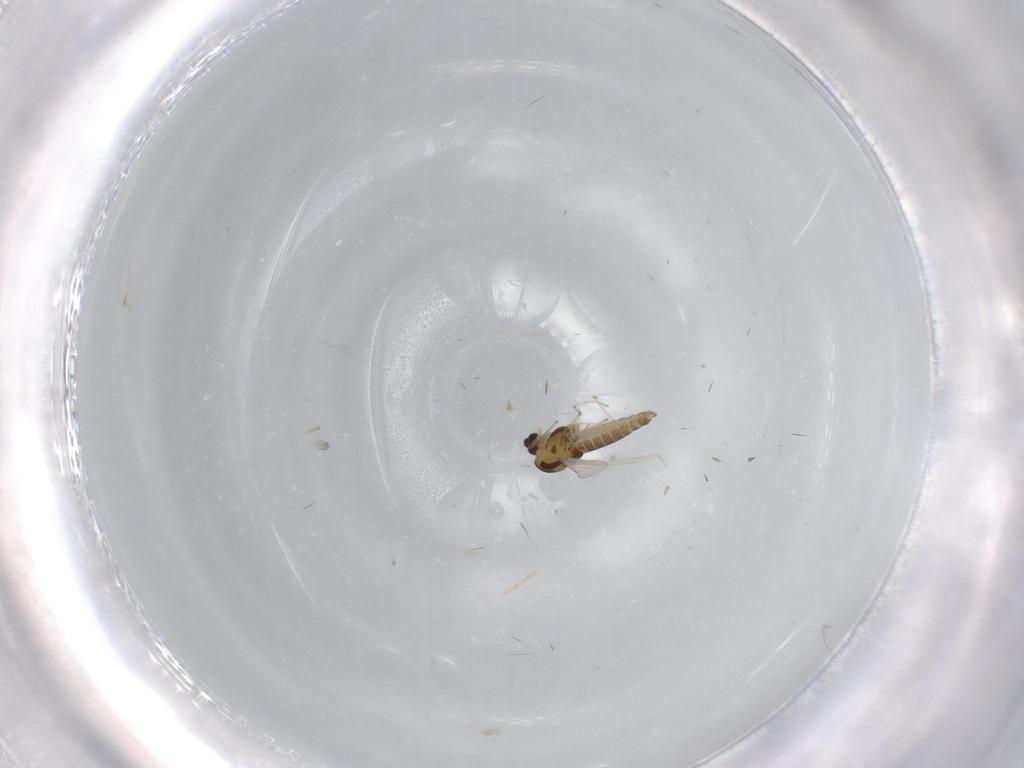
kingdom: Animalia
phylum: Arthropoda
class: Insecta
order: Diptera
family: Chironomidae
